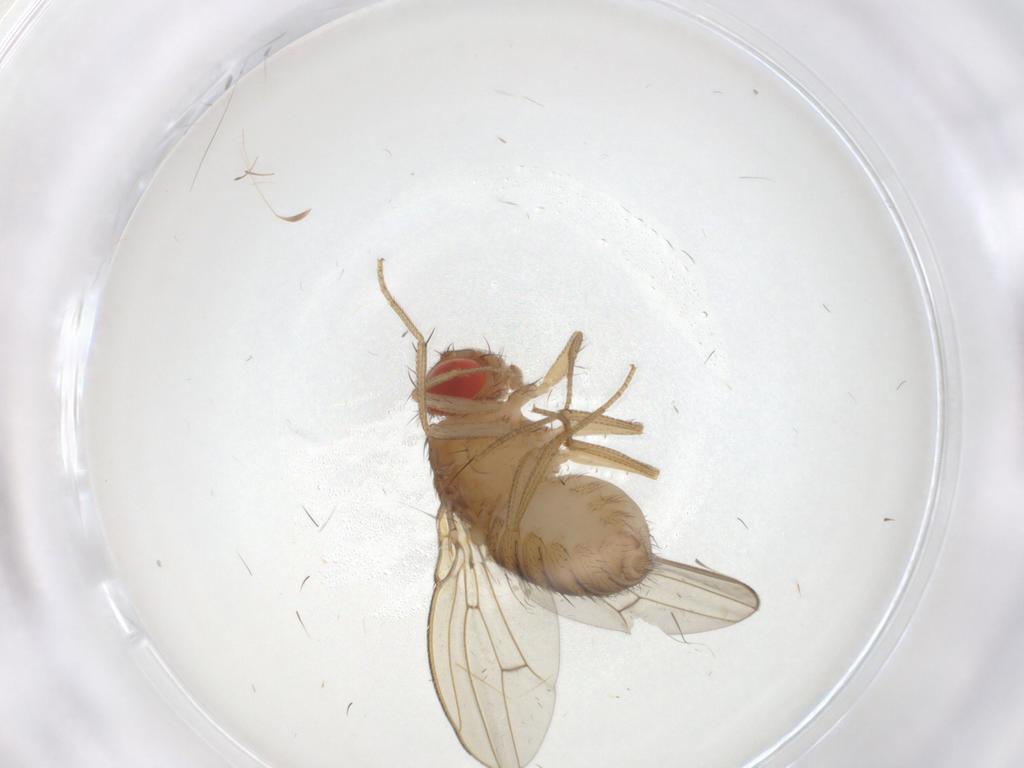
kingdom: Animalia
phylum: Arthropoda
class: Insecta
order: Diptera
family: Drosophilidae
